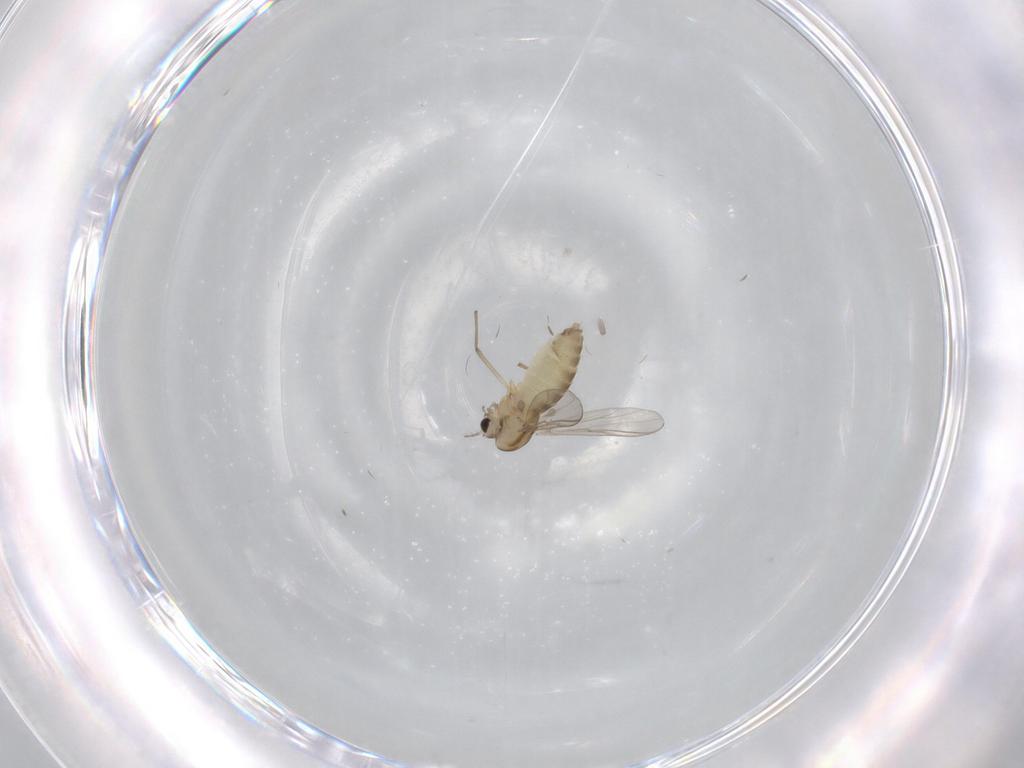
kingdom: Animalia
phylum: Arthropoda
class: Insecta
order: Diptera
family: Chironomidae
